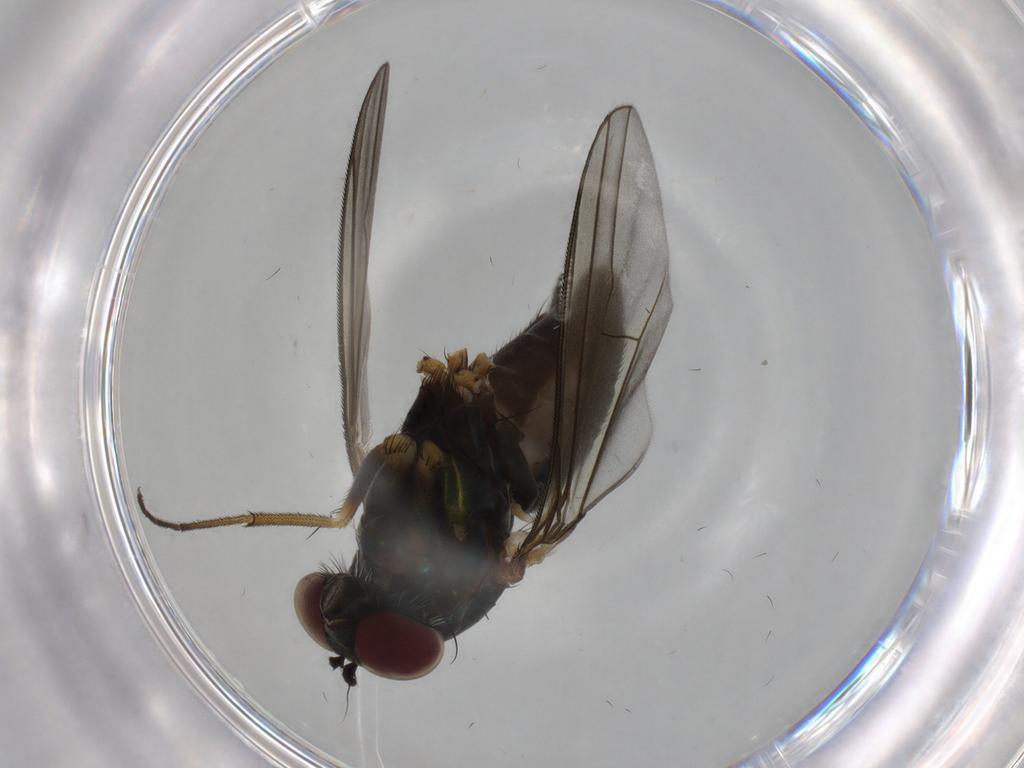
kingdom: Animalia
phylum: Arthropoda
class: Insecta
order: Diptera
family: Dolichopodidae
